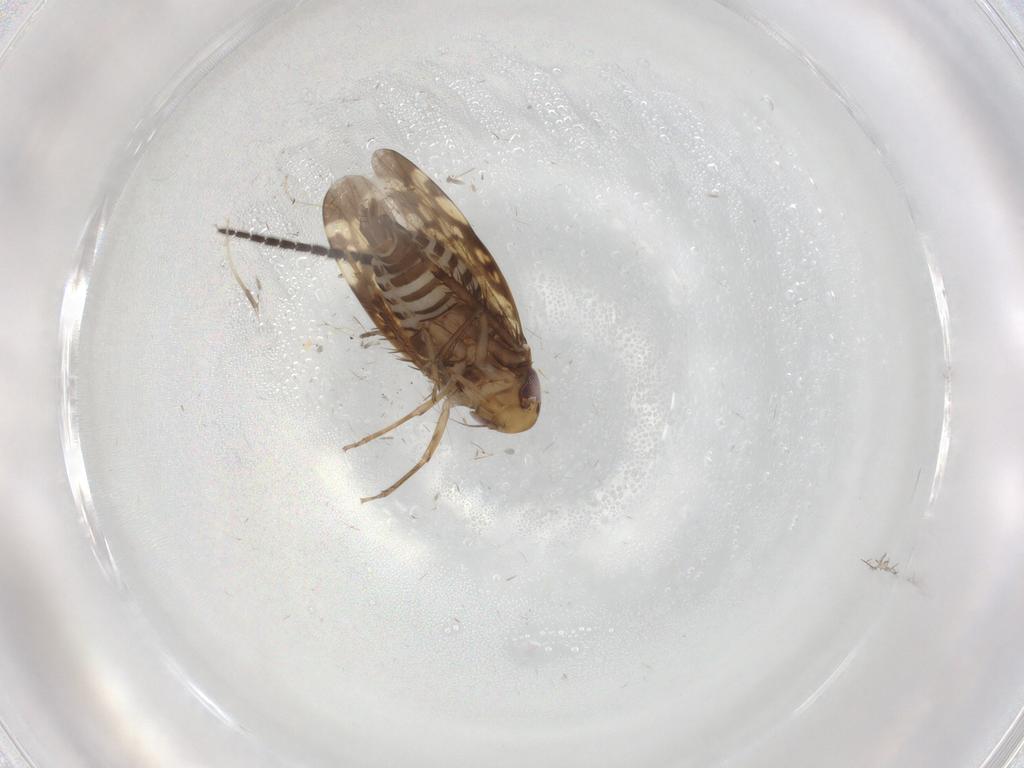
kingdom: Animalia
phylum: Arthropoda
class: Insecta
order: Hemiptera
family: Cicadellidae
